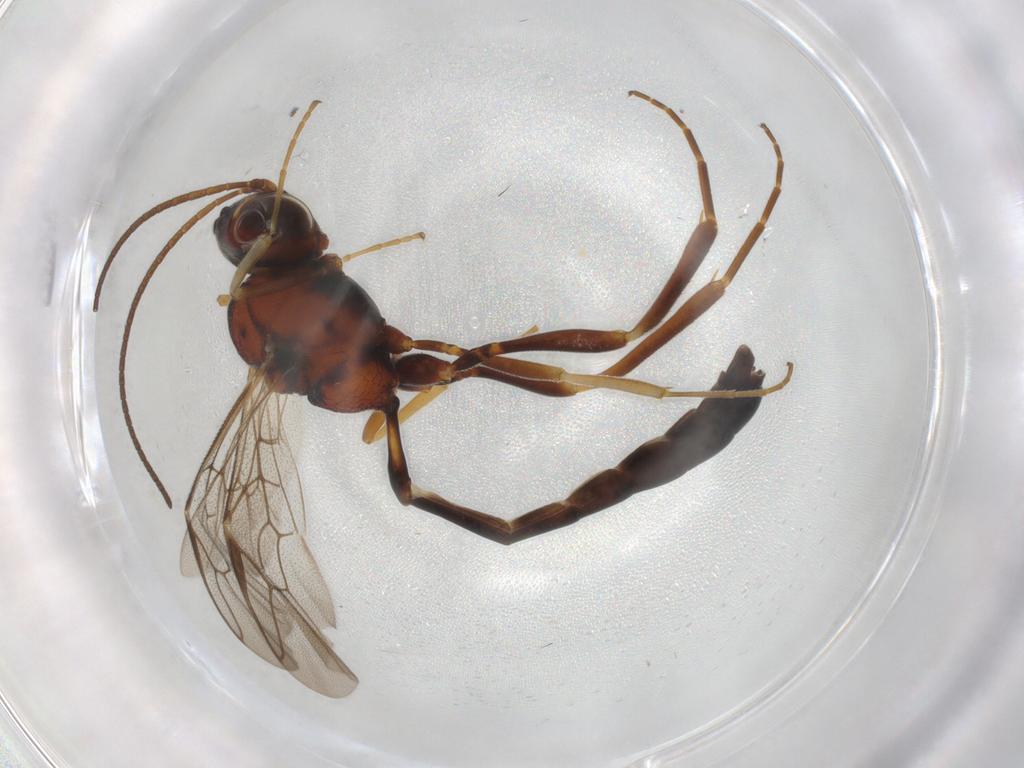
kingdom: Animalia
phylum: Arthropoda
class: Insecta
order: Hymenoptera
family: Ichneumonidae
